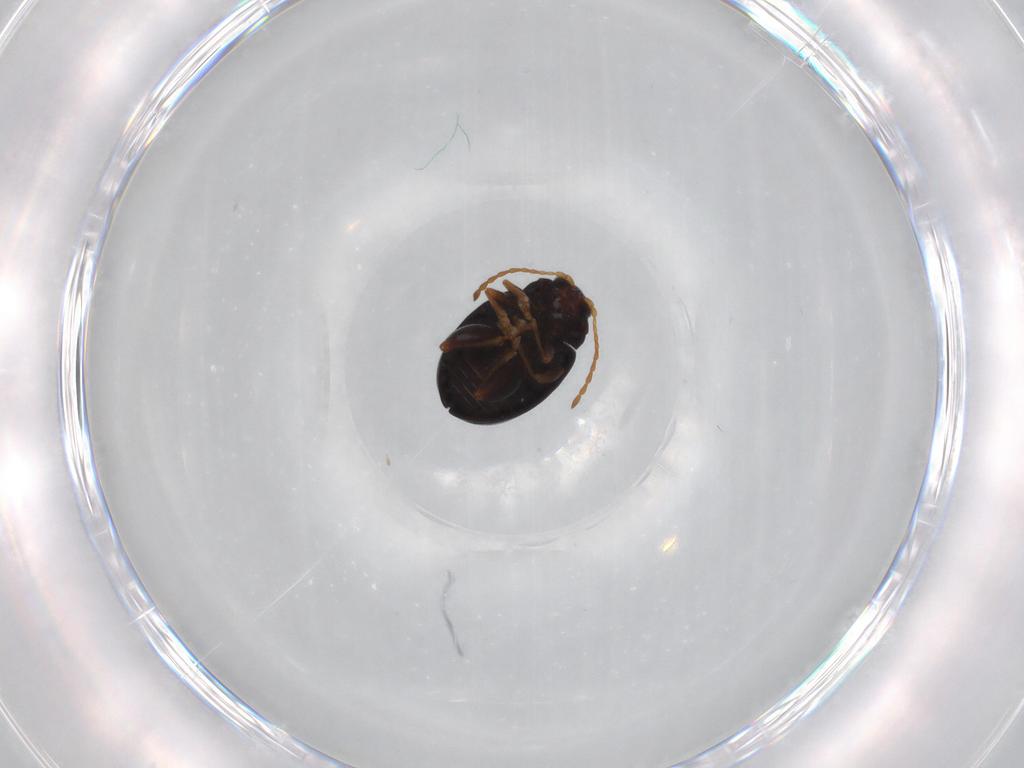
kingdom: Animalia
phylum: Arthropoda
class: Insecta
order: Coleoptera
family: Chrysomelidae
